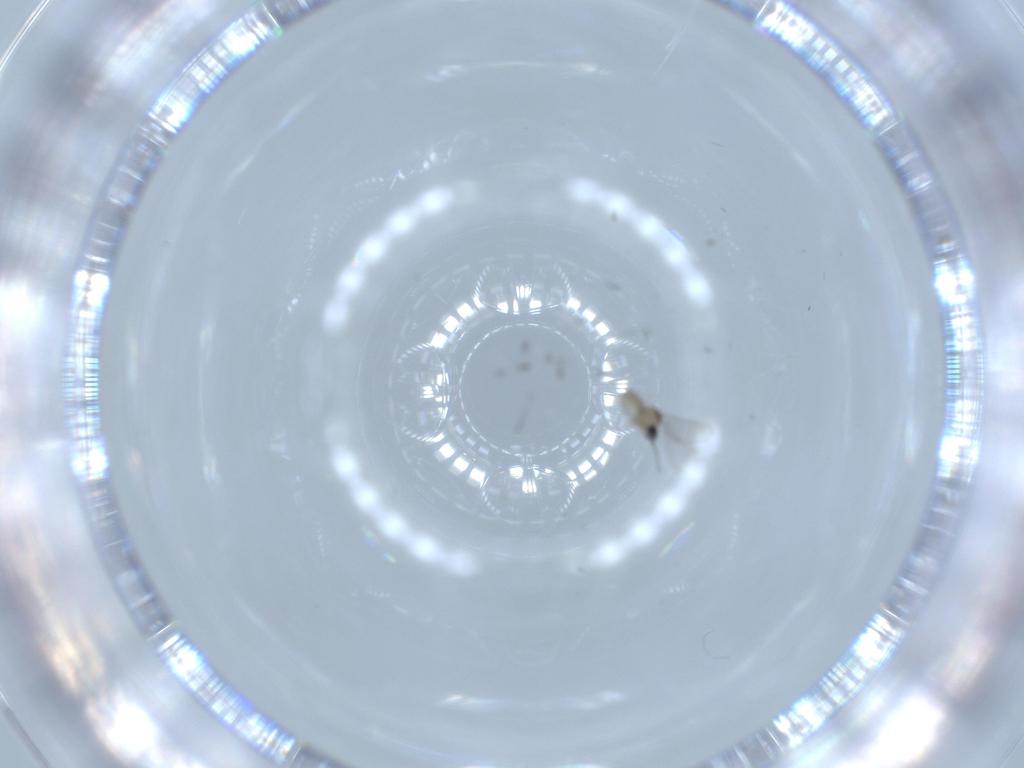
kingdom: Animalia
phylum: Arthropoda
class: Insecta
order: Diptera
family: Cecidomyiidae
